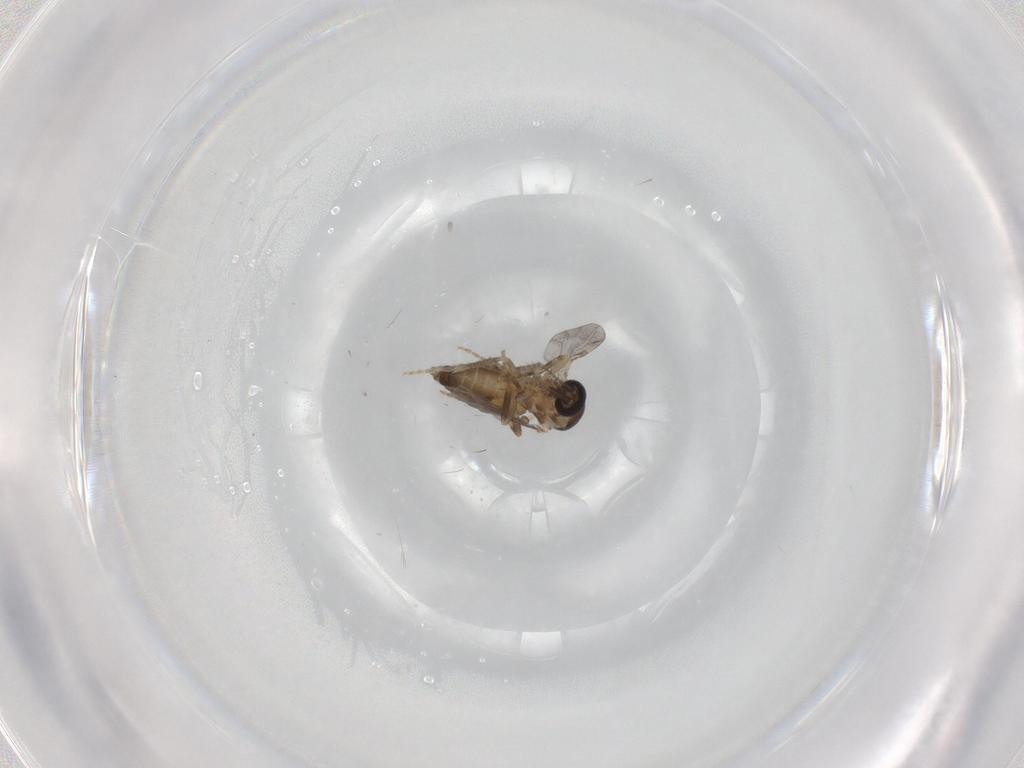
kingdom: Animalia
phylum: Arthropoda
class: Insecta
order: Diptera
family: Ceratopogonidae
